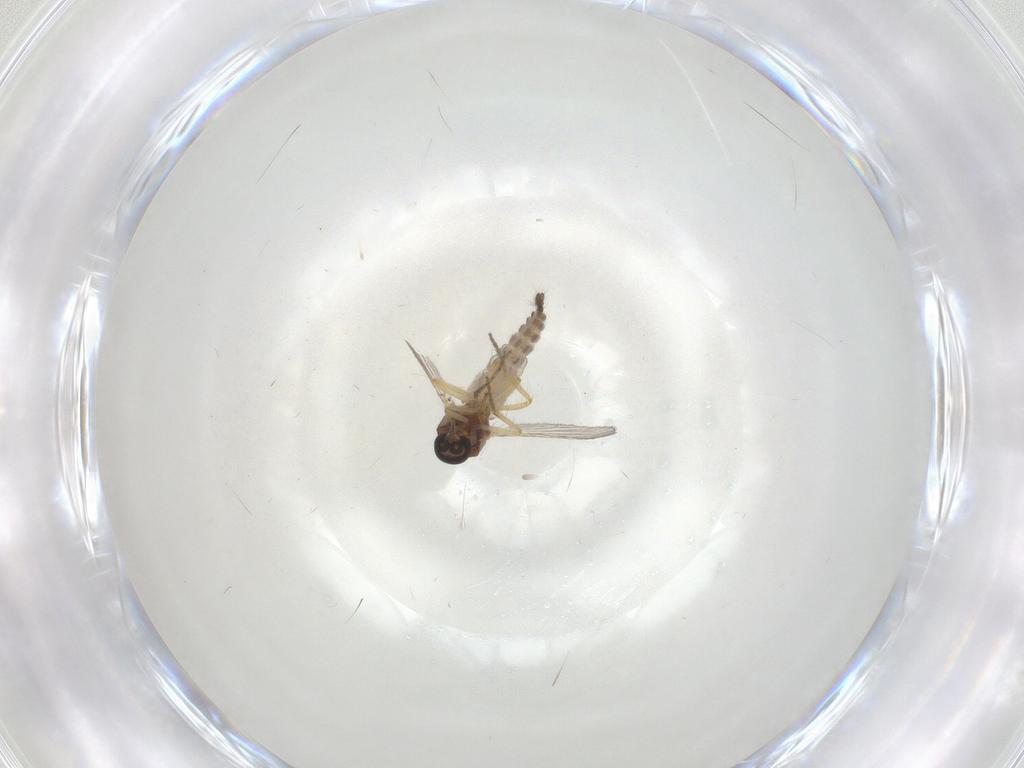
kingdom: Animalia
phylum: Arthropoda
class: Insecta
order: Diptera
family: Ceratopogonidae
